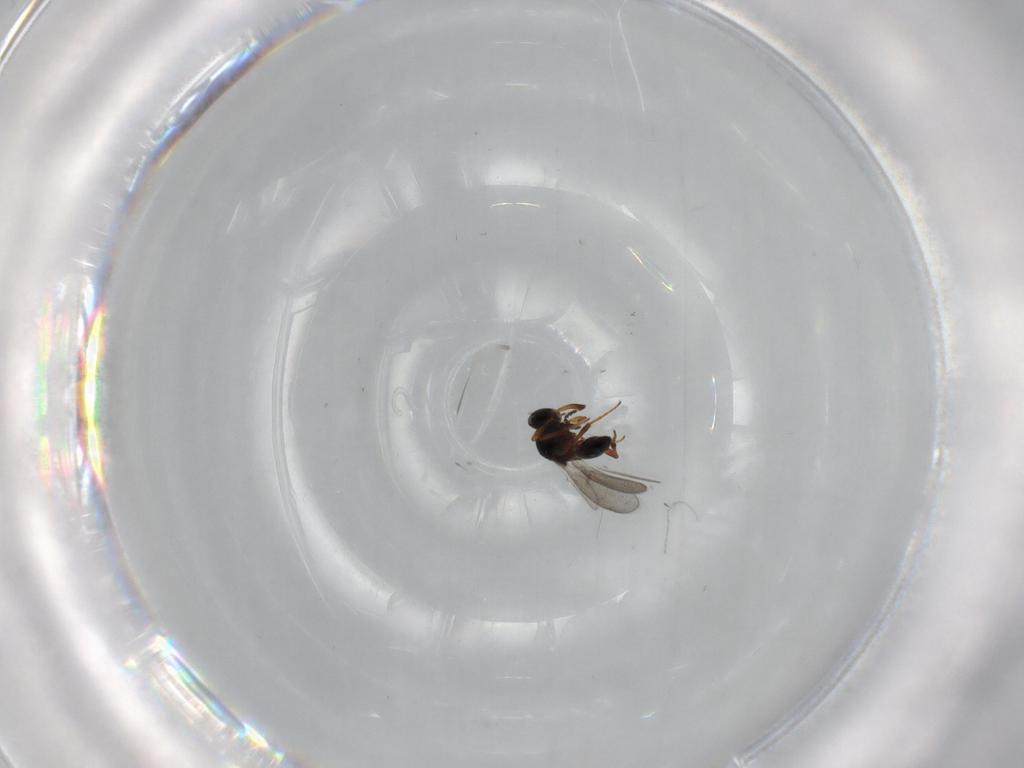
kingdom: Animalia
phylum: Arthropoda
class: Insecta
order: Hymenoptera
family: Platygastridae
